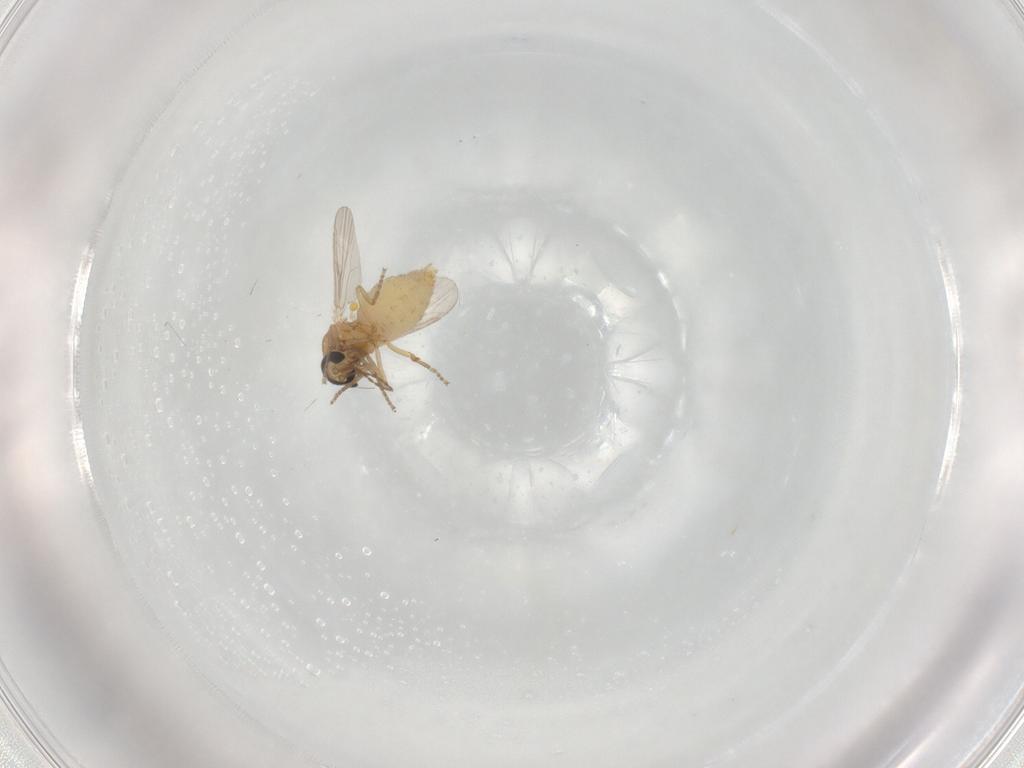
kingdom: Animalia
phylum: Arthropoda
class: Insecta
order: Diptera
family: Ceratopogonidae
